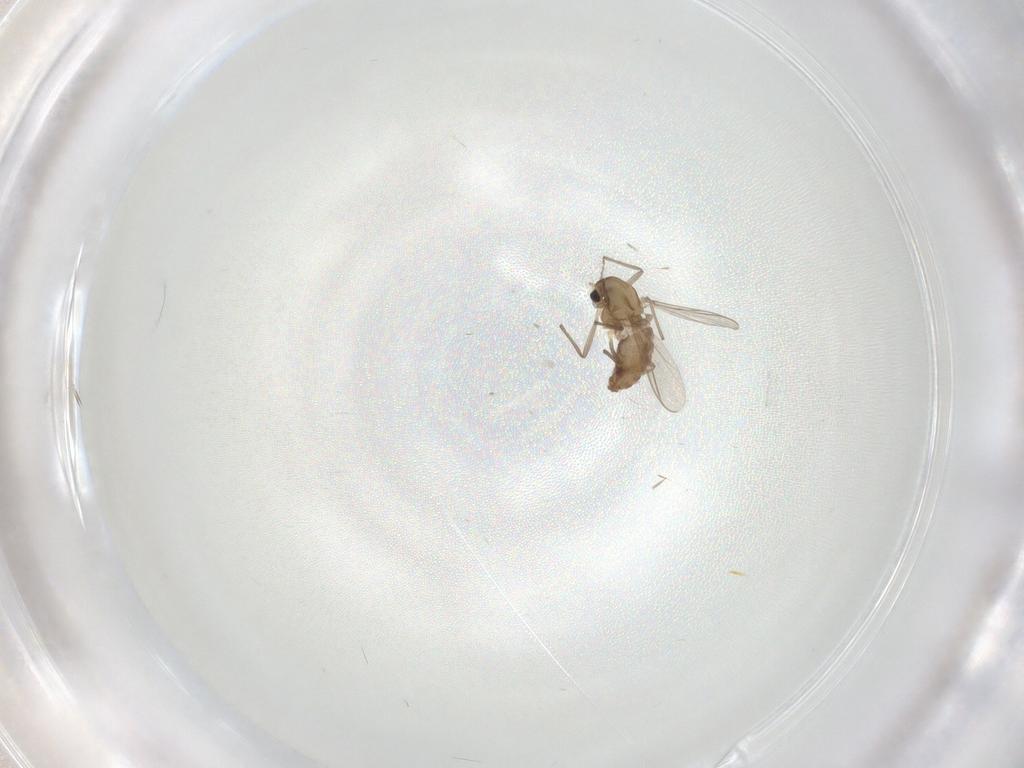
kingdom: Animalia
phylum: Arthropoda
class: Insecta
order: Diptera
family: Chironomidae
